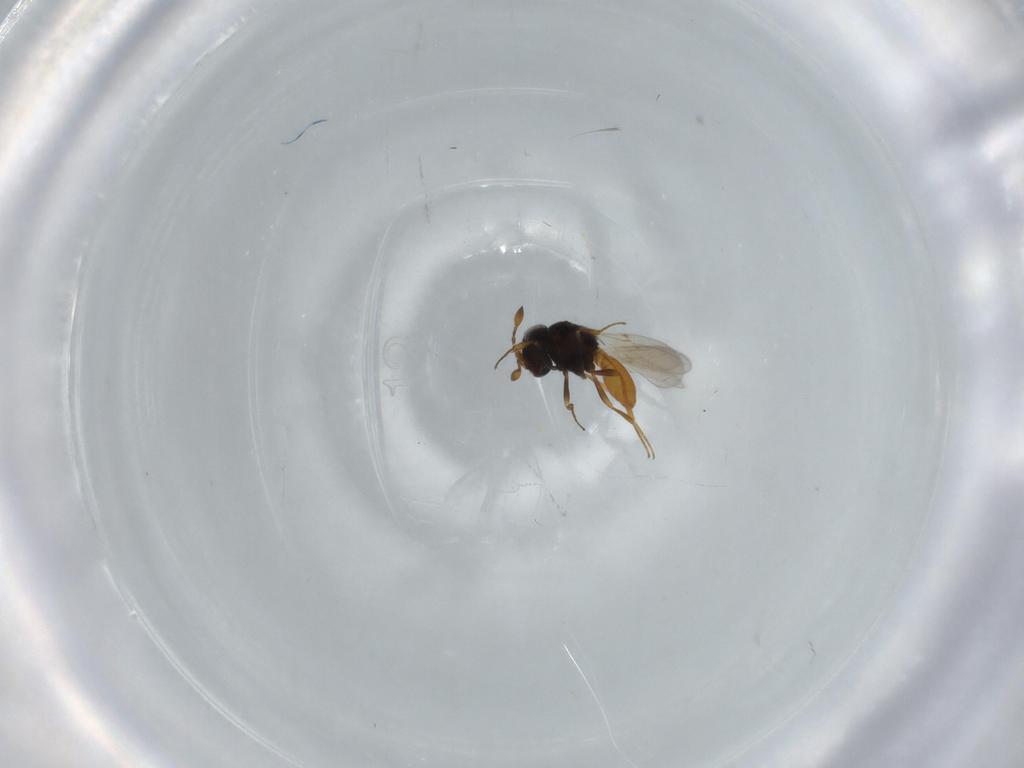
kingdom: Animalia
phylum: Arthropoda
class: Insecta
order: Hymenoptera
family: Scelionidae
